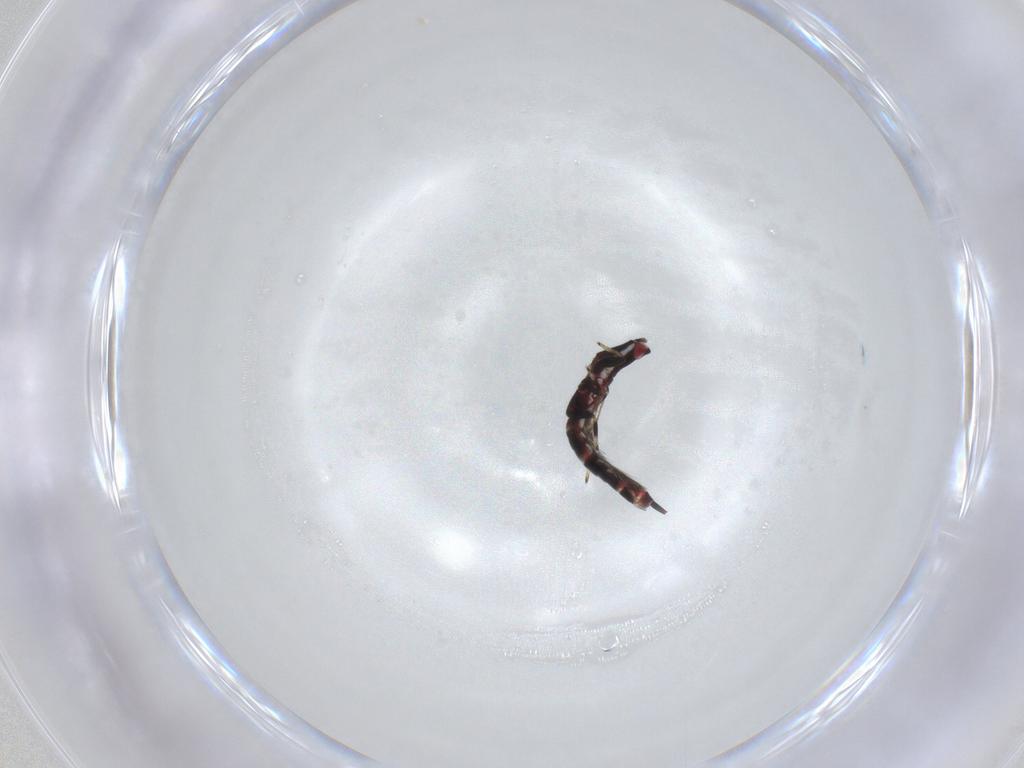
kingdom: Animalia
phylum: Arthropoda
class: Insecta
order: Thysanoptera
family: Phlaeothripidae
